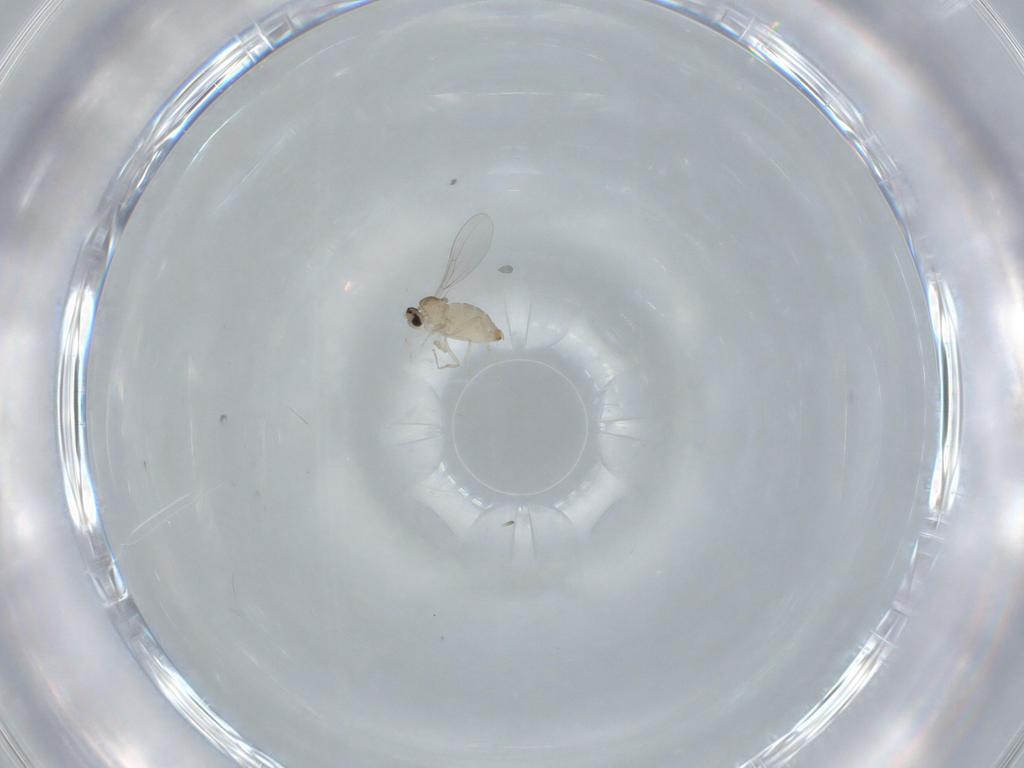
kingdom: Animalia
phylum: Arthropoda
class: Insecta
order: Diptera
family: Cecidomyiidae
